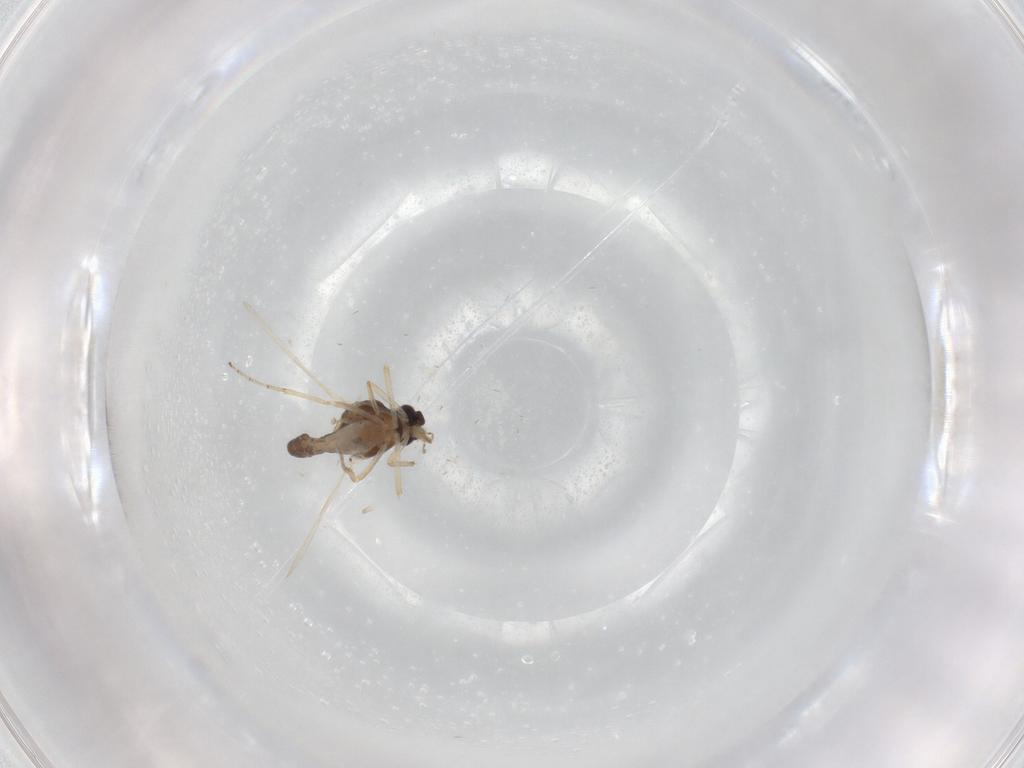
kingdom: Animalia
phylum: Arthropoda
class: Insecta
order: Diptera
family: Ceratopogonidae
